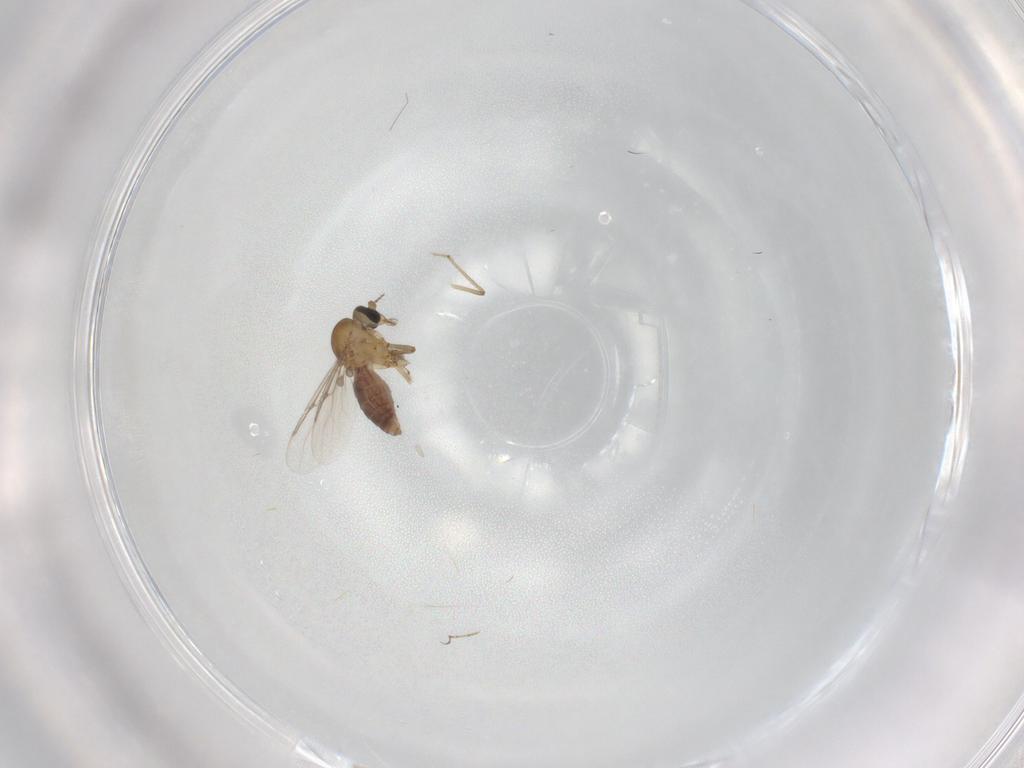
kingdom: Animalia
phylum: Arthropoda
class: Insecta
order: Diptera
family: Ceratopogonidae
